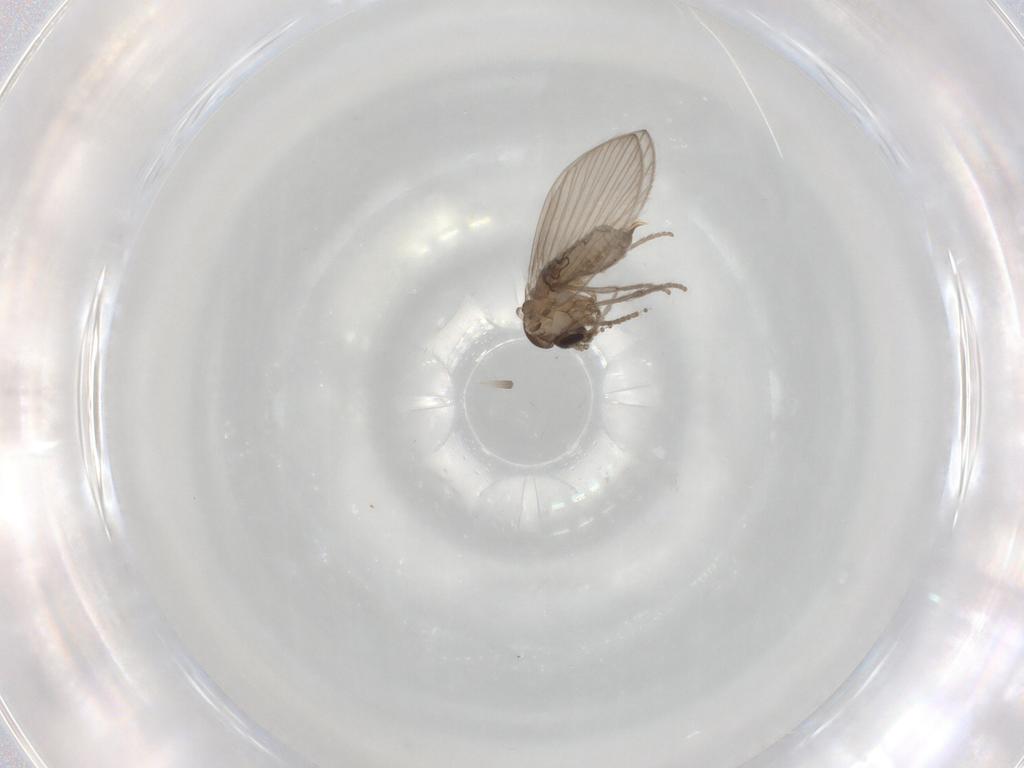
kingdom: Animalia
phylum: Arthropoda
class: Insecta
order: Diptera
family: Psychodidae
